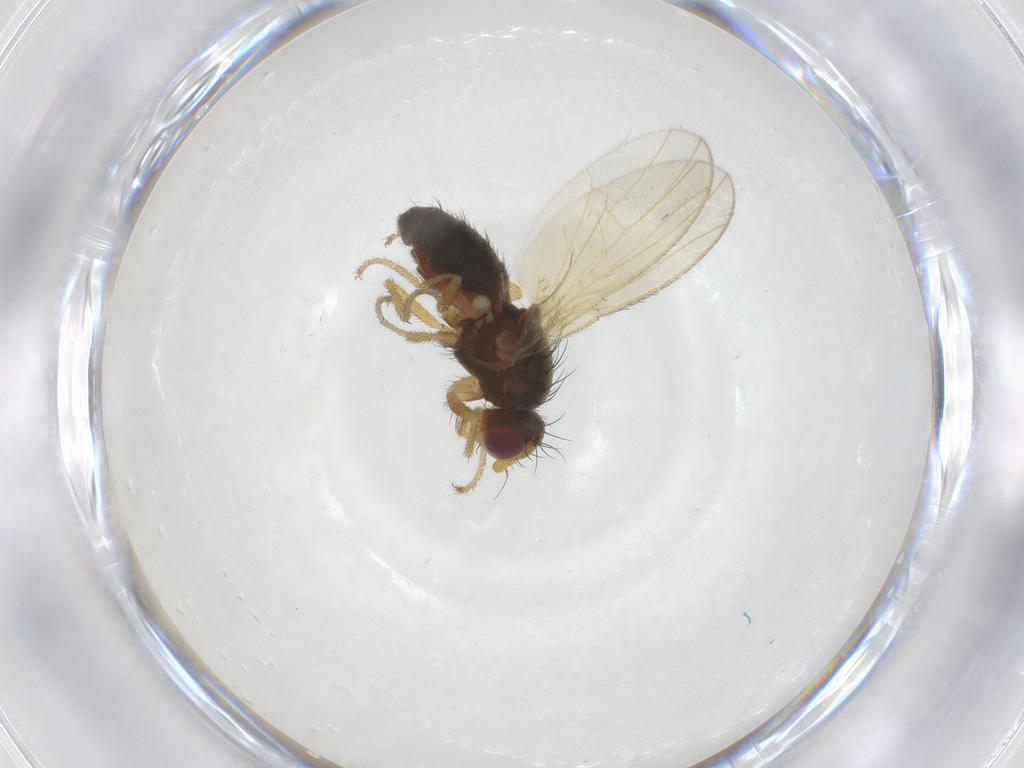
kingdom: Animalia
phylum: Arthropoda
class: Insecta
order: Diptera
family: Heleomyzidae
